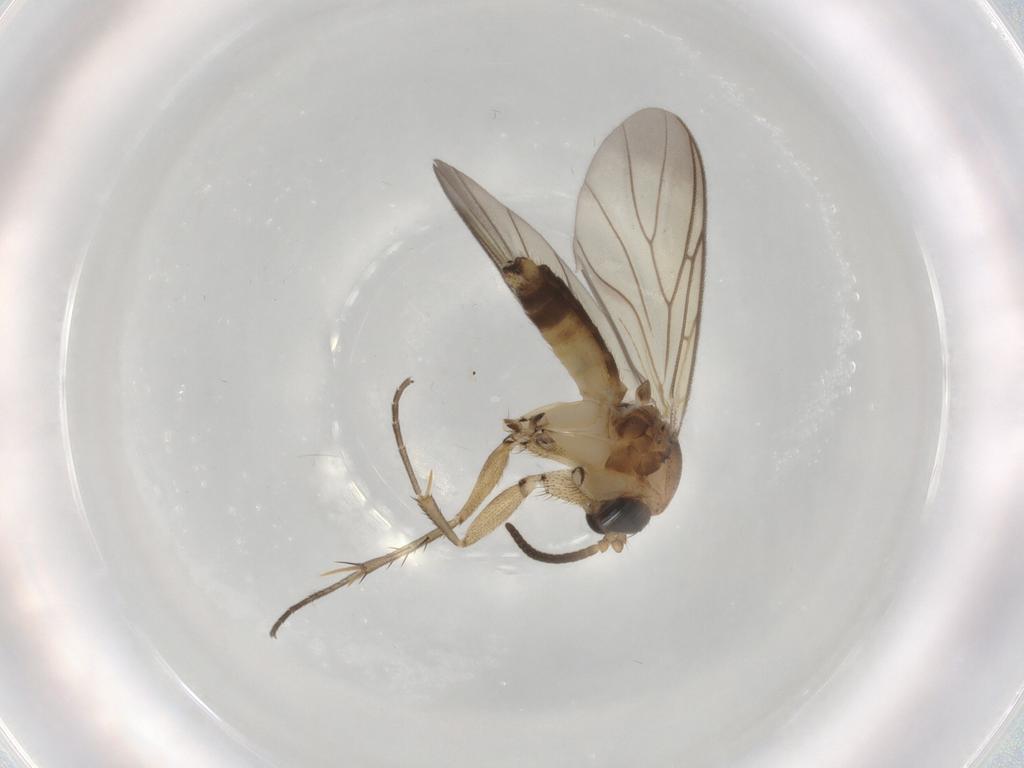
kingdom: Animalia
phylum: Arthropoda
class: Insecta
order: Diptera
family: Mycetophilidae
